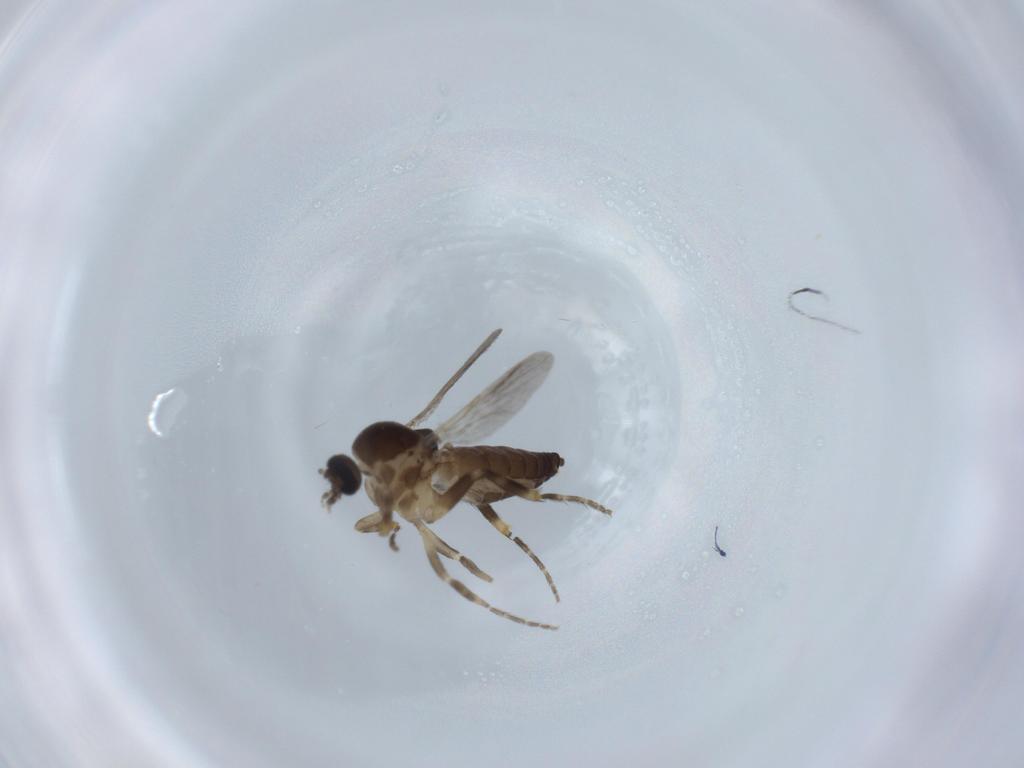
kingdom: Animalia
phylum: Arthropoda
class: Insecta
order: Diptera
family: Ceratopogonidae
